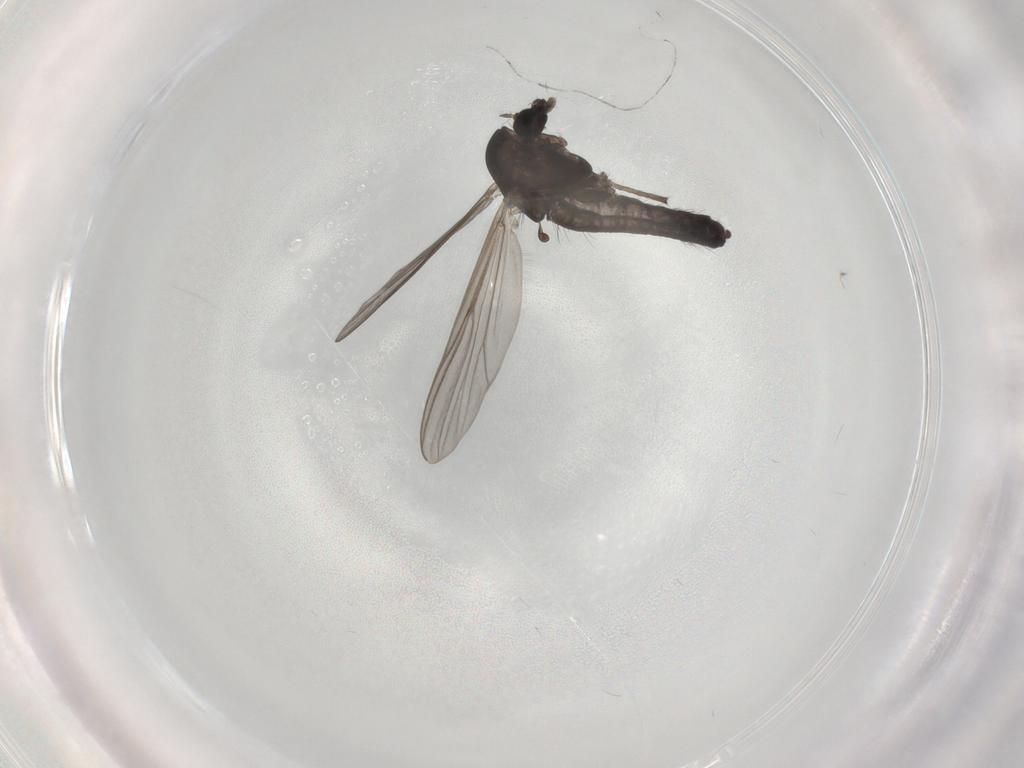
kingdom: Animalia
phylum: Arthropoda
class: Insecta
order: Diptera
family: Chironomidae
